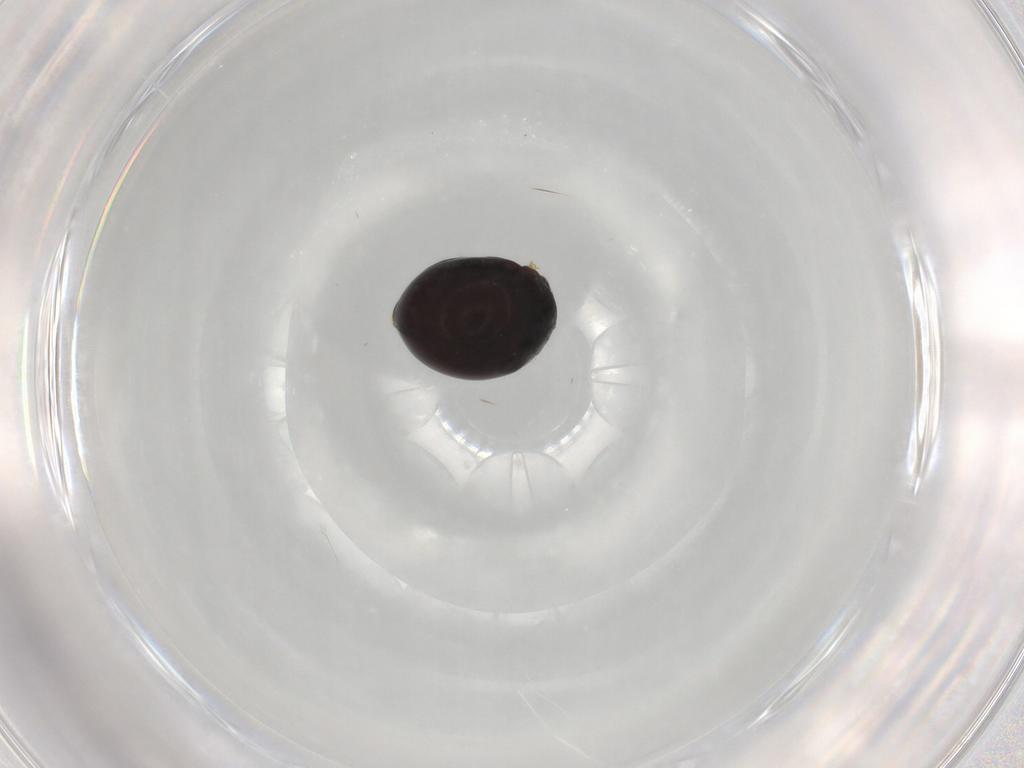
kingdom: Animalia
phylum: Arthropoda
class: Insecta
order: Coleoptera
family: Coccinellidae
